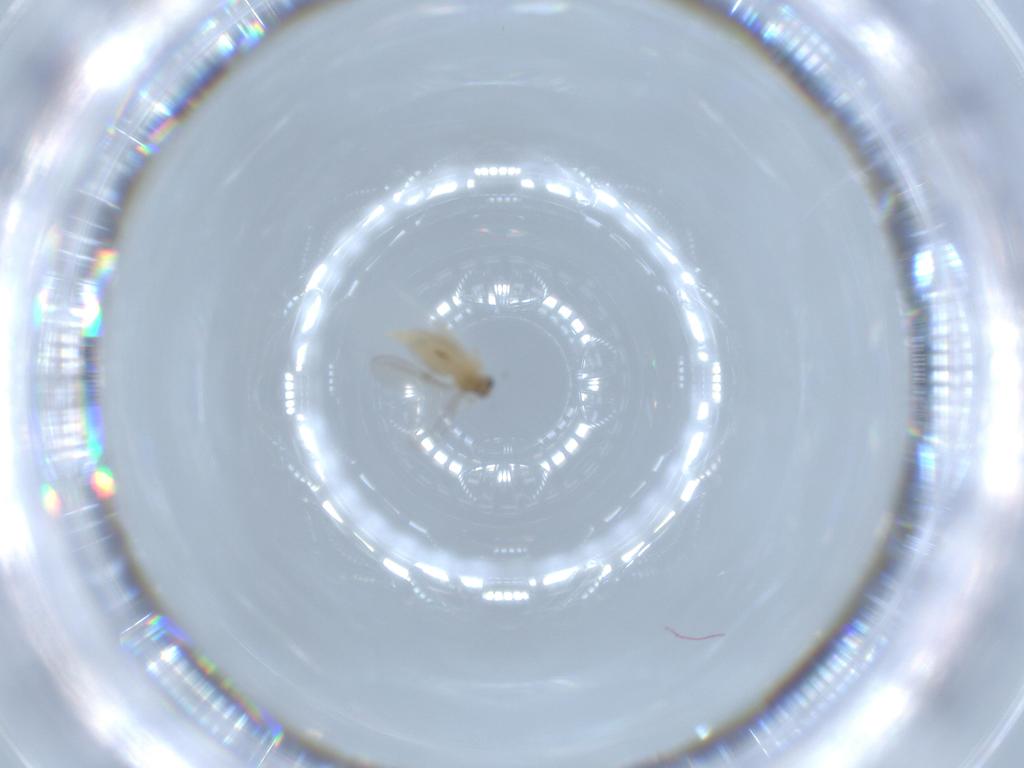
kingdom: Animalia
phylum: Arthropoda
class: Insecta
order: Diptera
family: Cecidomyiidae
